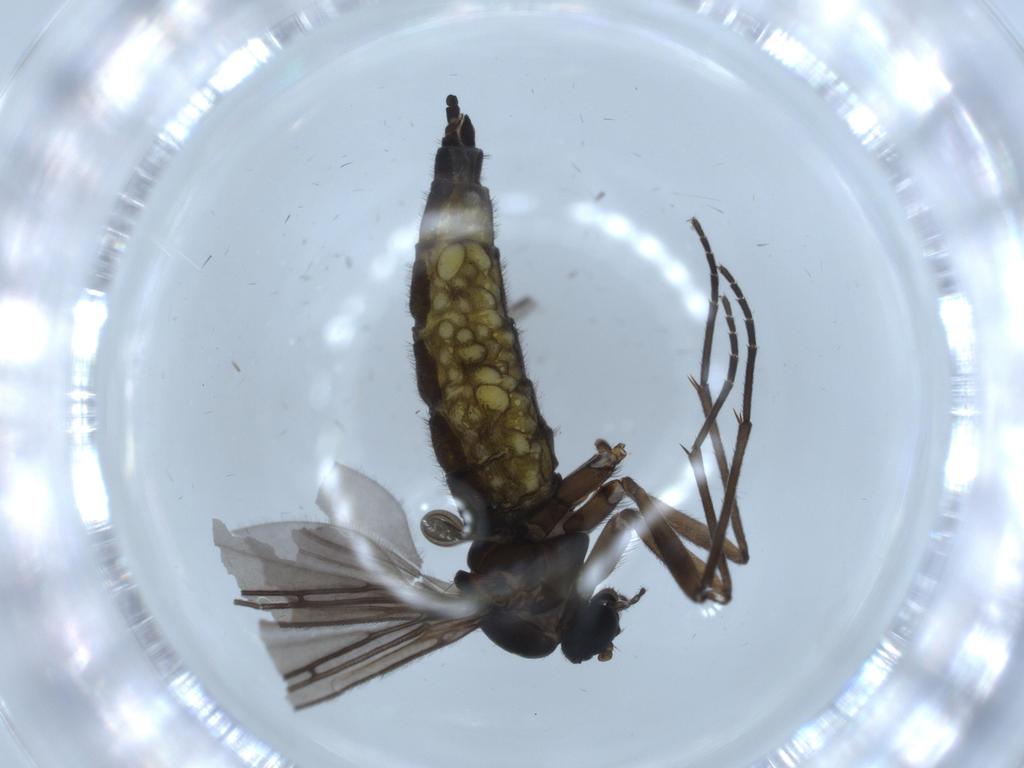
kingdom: Animalia
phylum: Arthropoda
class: Insecta
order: Diptera
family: Sciaridae
